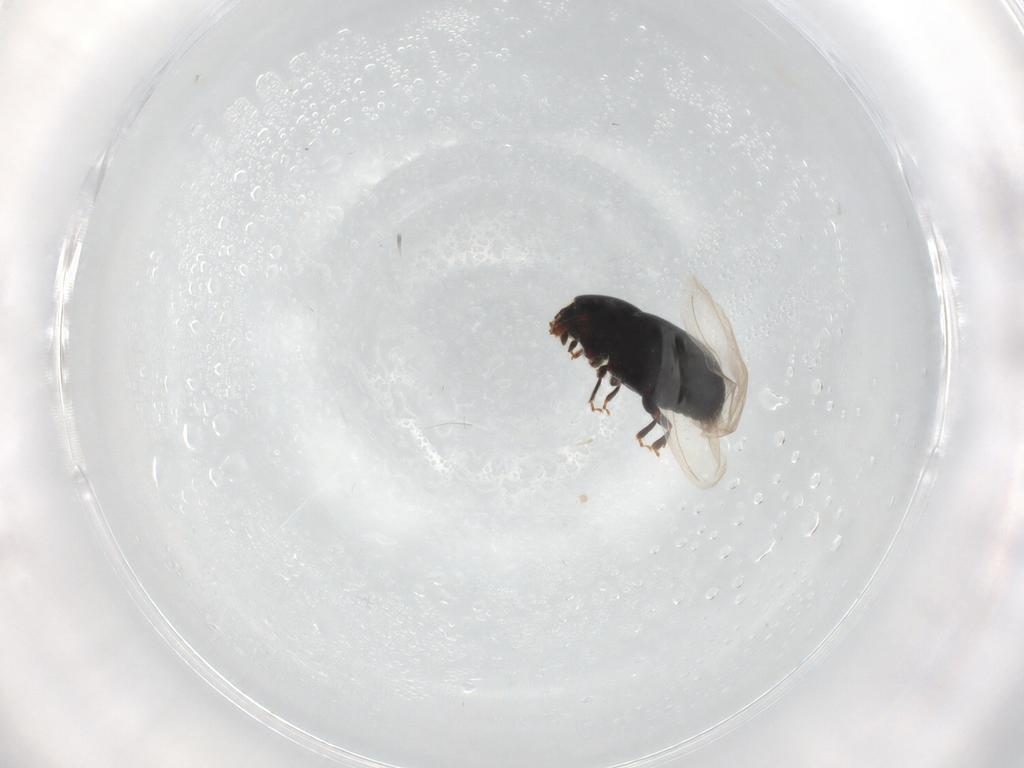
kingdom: Animalia
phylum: Arthropoda
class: Insecta
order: Coleoptera
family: Curculionidae
